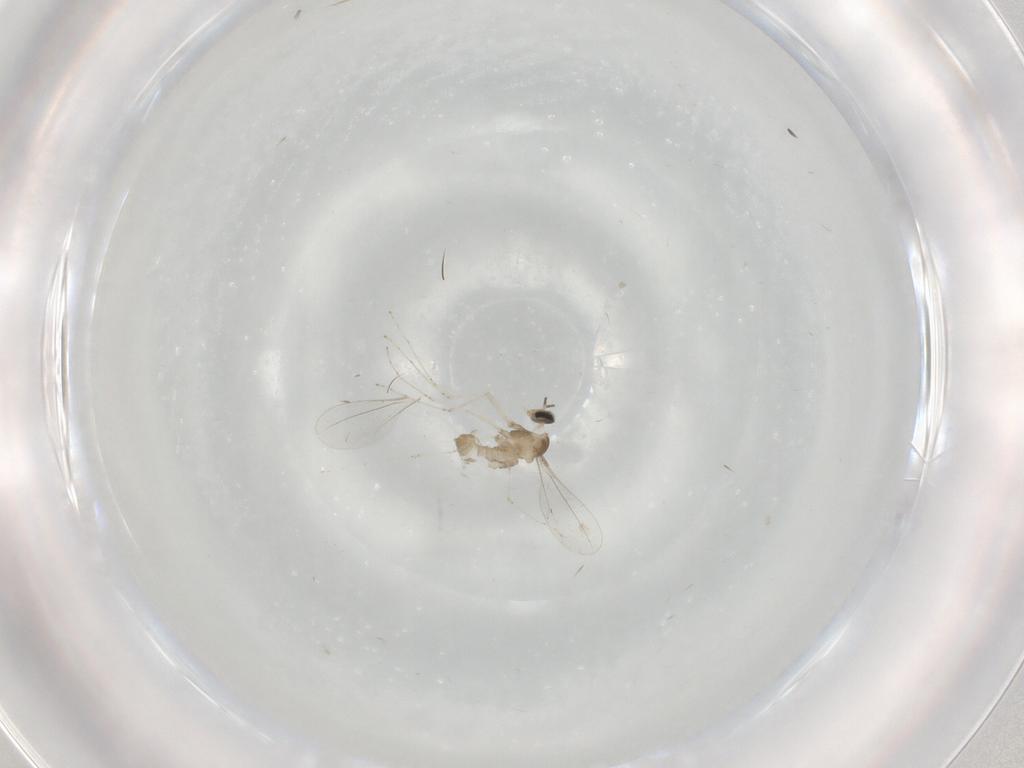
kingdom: Animalia
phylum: Arthropoda
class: Insecta
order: Diptera
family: Cecidomyiidae
